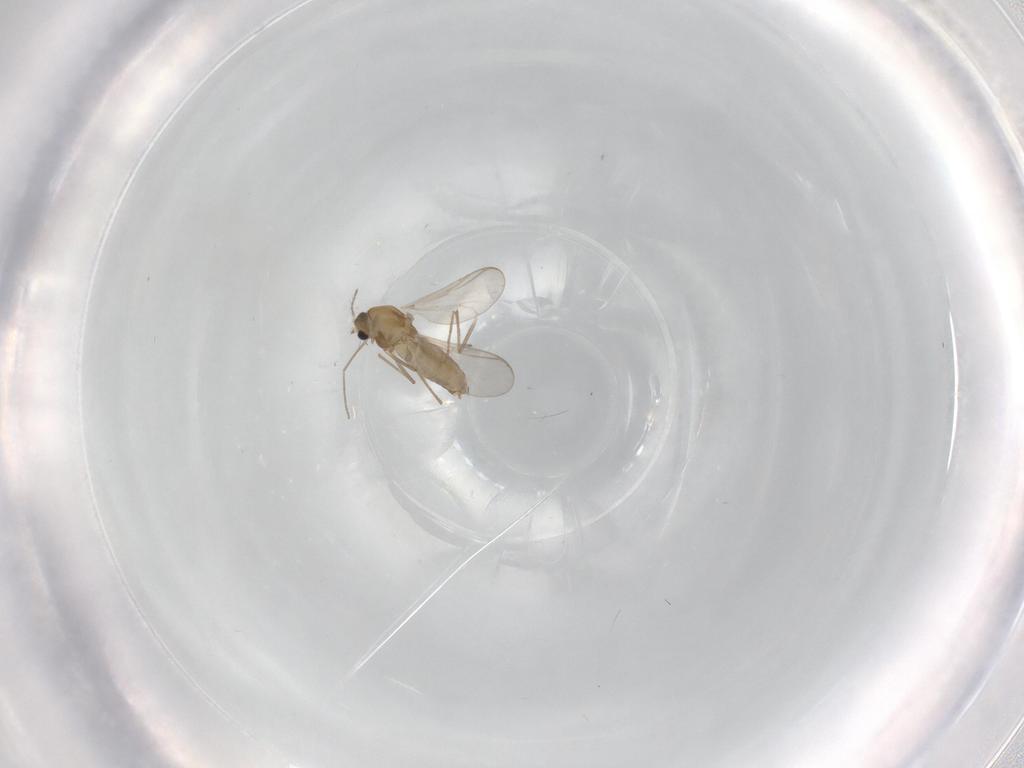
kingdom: Animalia
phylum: Arthropoda
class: Insecta
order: Diptera
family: Chironomidae
